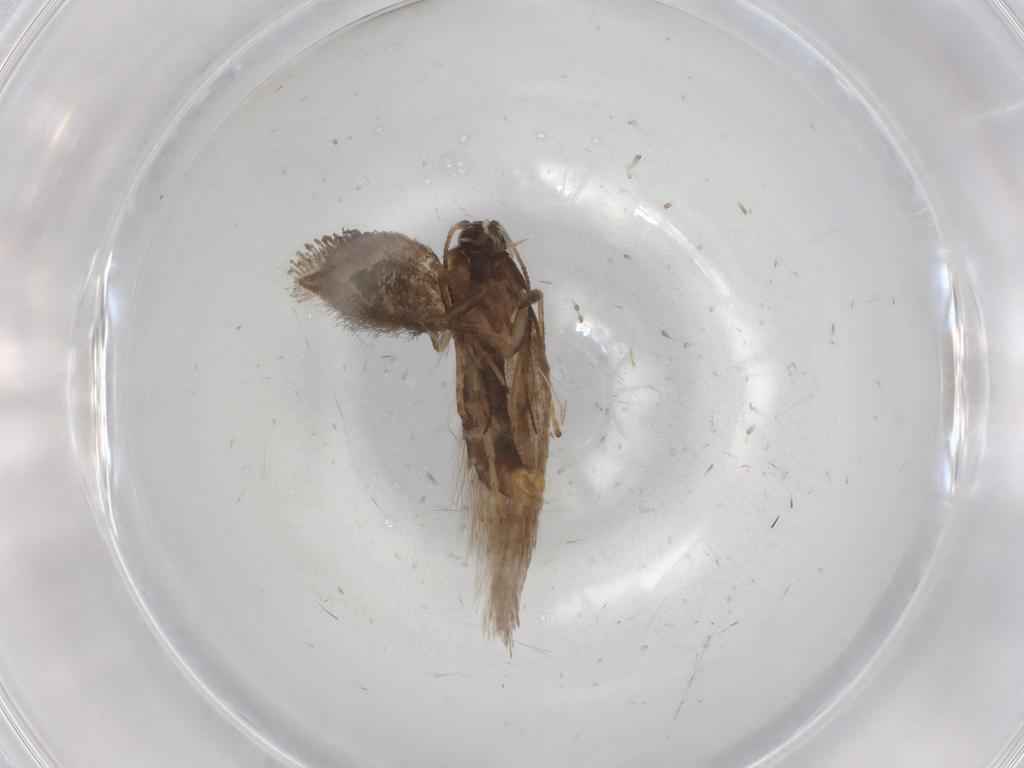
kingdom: Animalia
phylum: Arthropoda
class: Insecta
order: Lepidoptera
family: Nepticulidae
